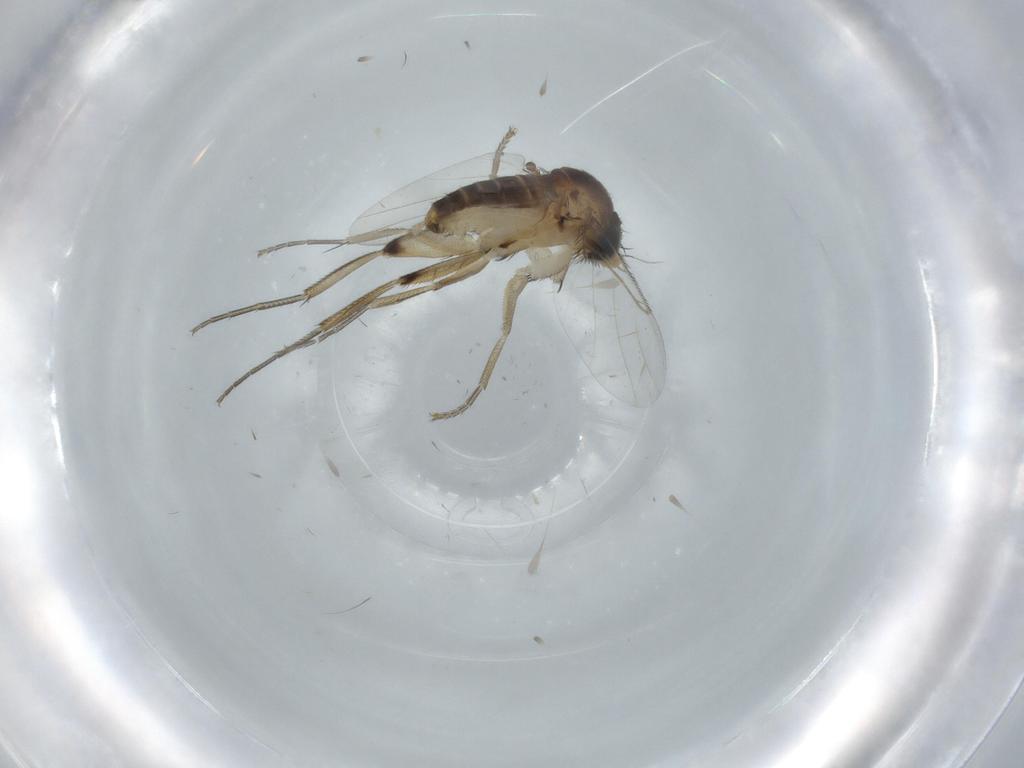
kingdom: Animalia
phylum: Arthropoda
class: Insecta
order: Diptera
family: Phoridae
